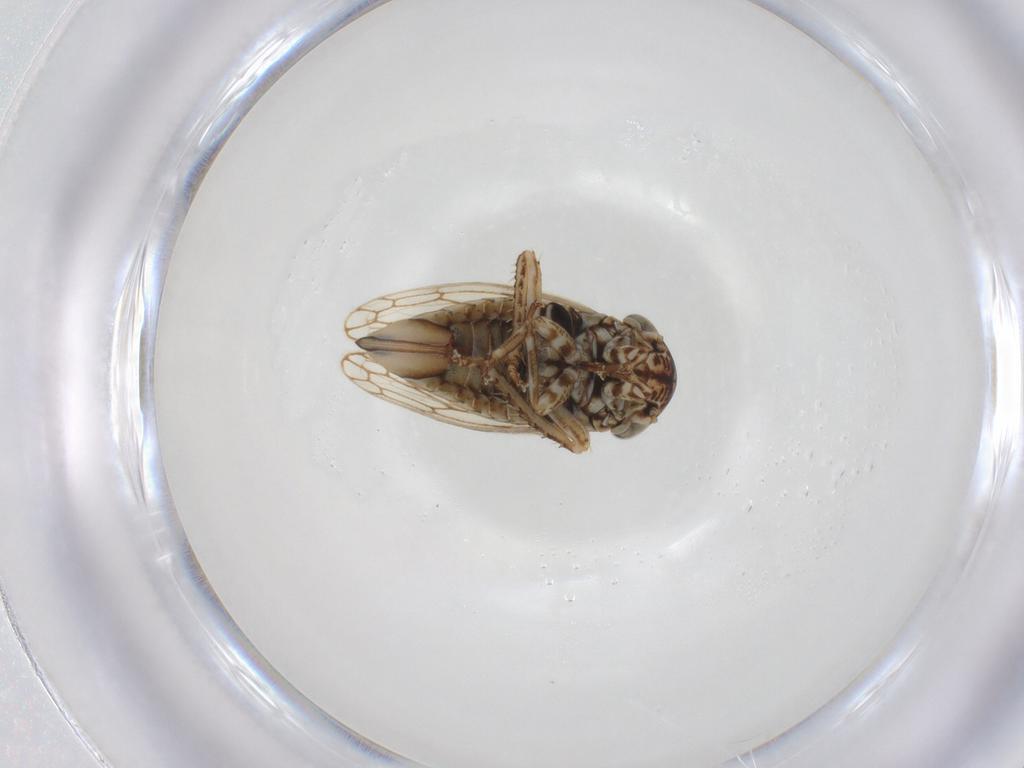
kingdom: Animalia
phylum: Arthropoda
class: Insecta
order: Hemiptera
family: Cicadellidae
